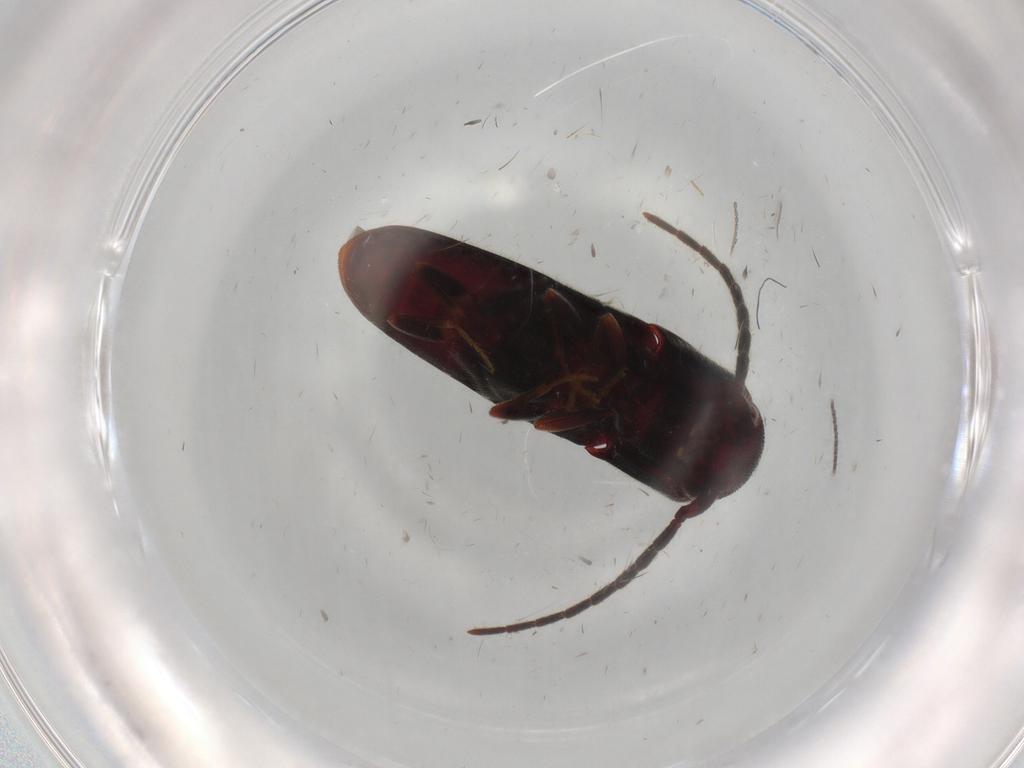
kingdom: Animalia
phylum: Arthropoda
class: Insecta
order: Coleoptera
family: Eucnemidae
